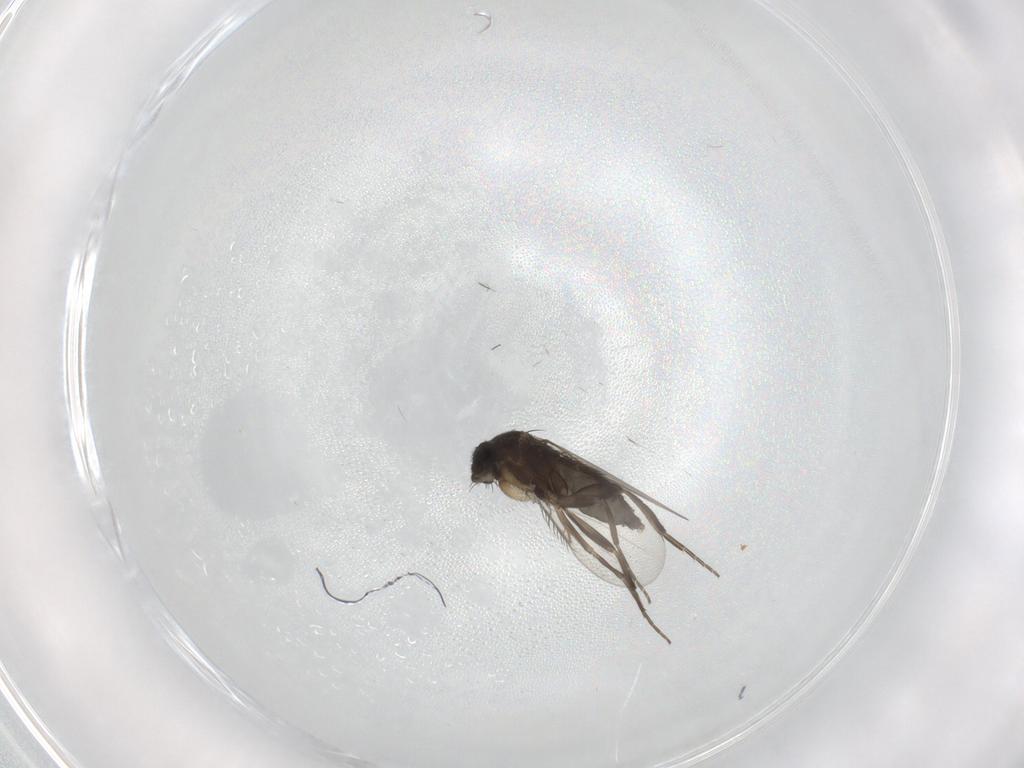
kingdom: Animalia
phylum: Arthropoda
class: Insecta
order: Diptera
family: Phoridae
